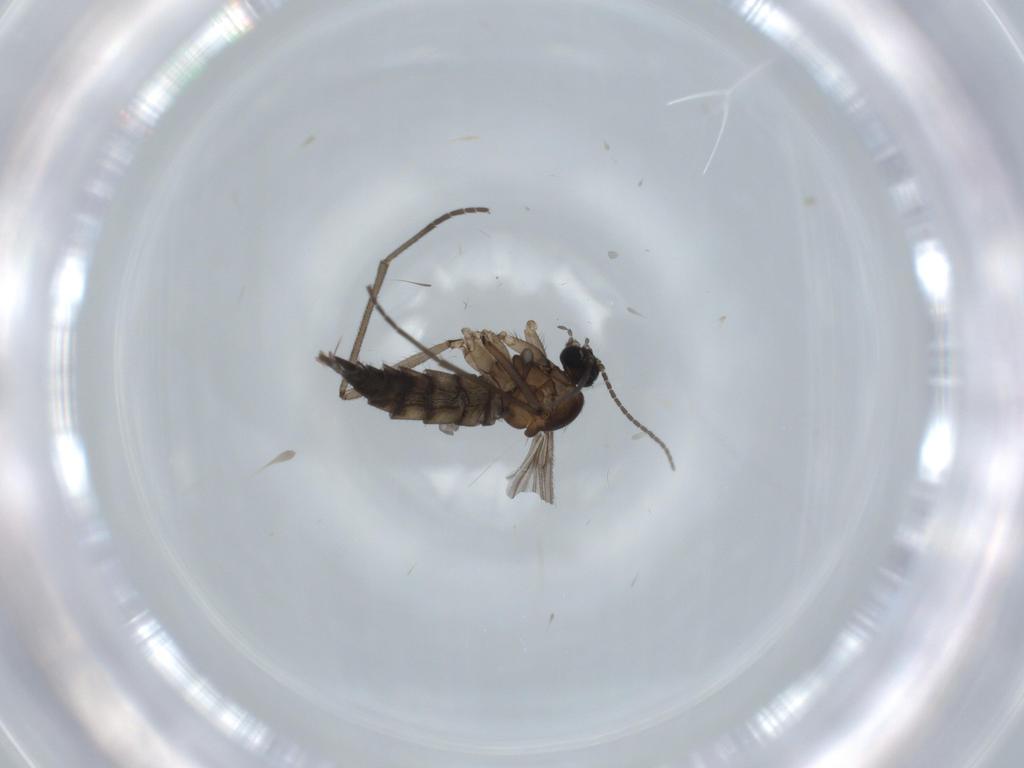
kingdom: Animalia
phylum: Arthropoda
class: Insecta
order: Diptera
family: Sciaridae
